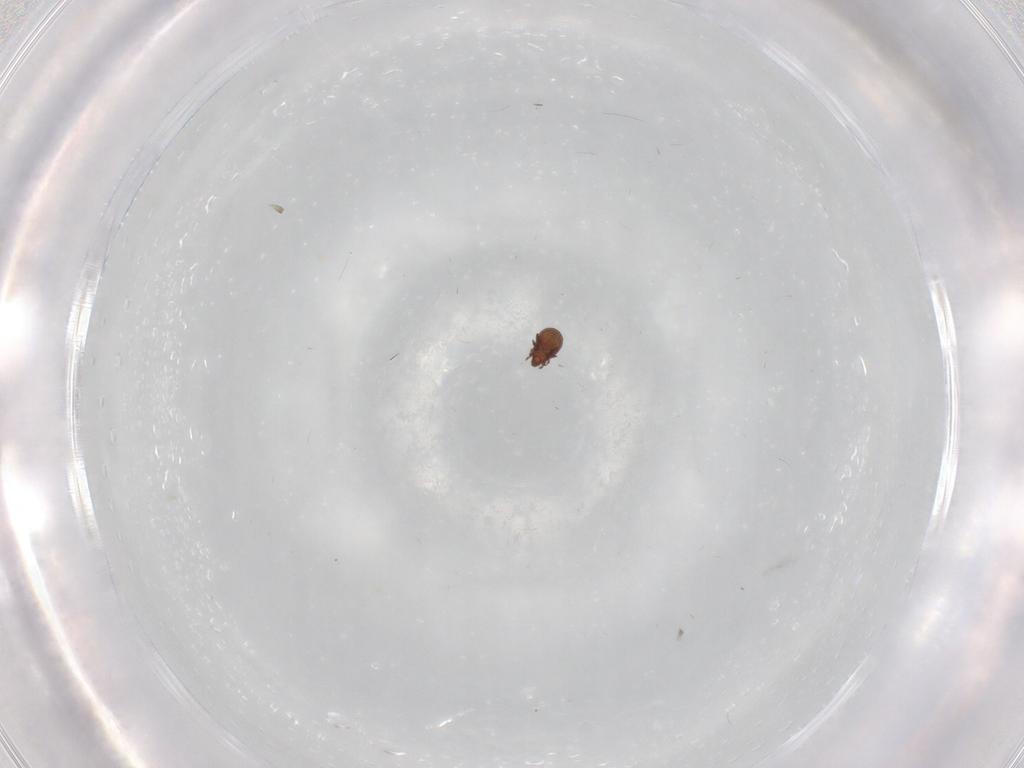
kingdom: Animalia
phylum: Arthropoda
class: Arachnida
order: Sarcoptiformes
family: Tectocepheidae
